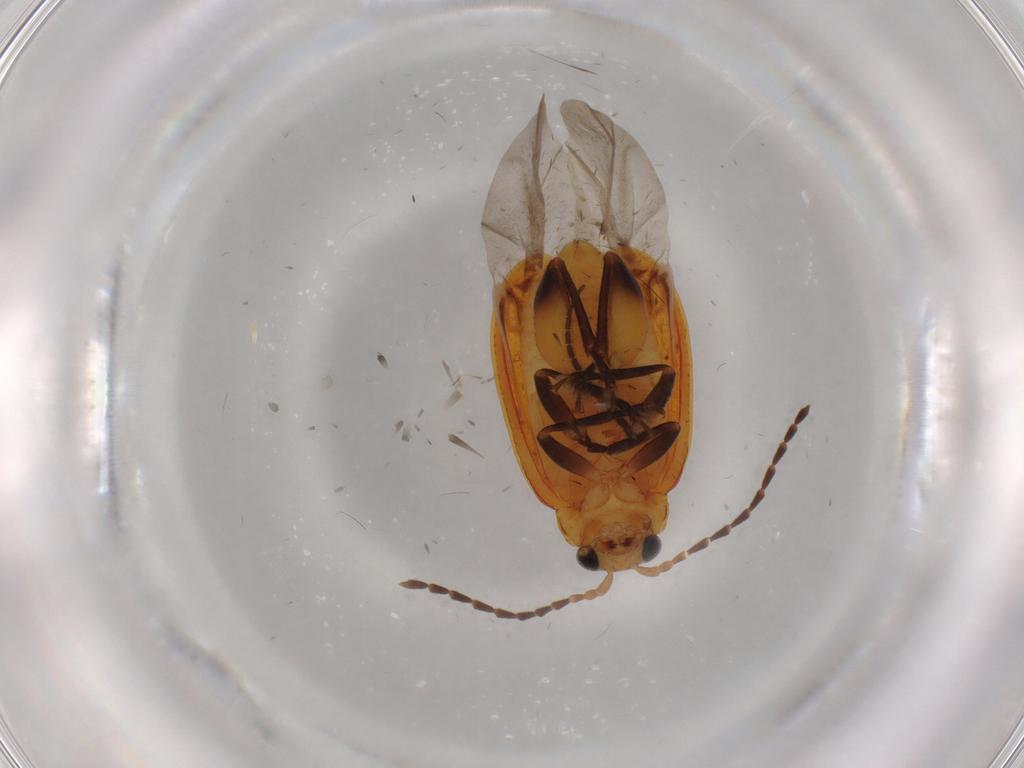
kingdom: Animalia
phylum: Arthropoda
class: Insecta
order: Coleoptera
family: Chrysomelidae
